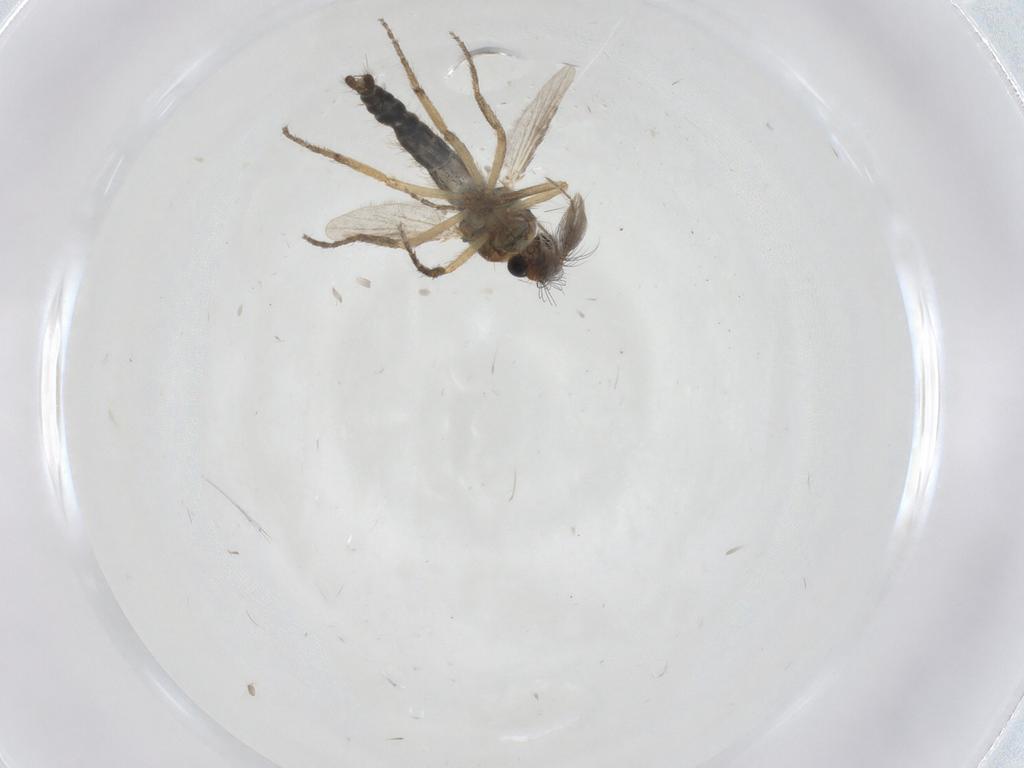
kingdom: Animalia
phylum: Arthropoda
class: Insecta
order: Diptera
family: Ceratopogonidae
